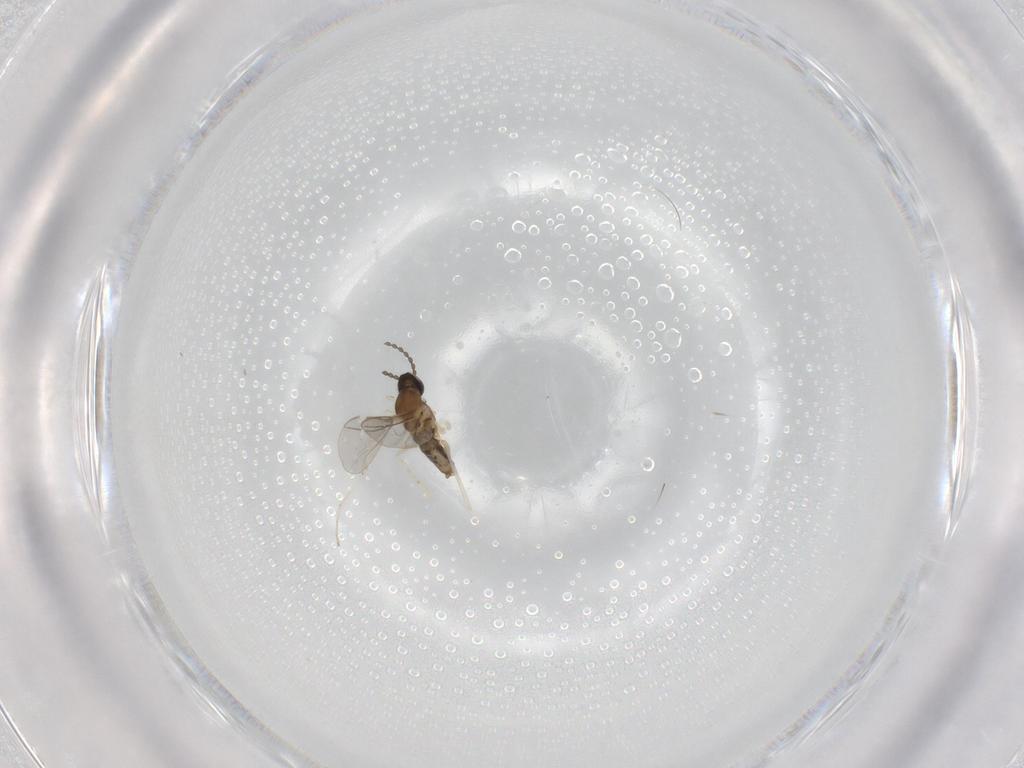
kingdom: Animalia
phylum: Arthropoda
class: Insecta
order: Diptera
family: Cecidomyiidae
